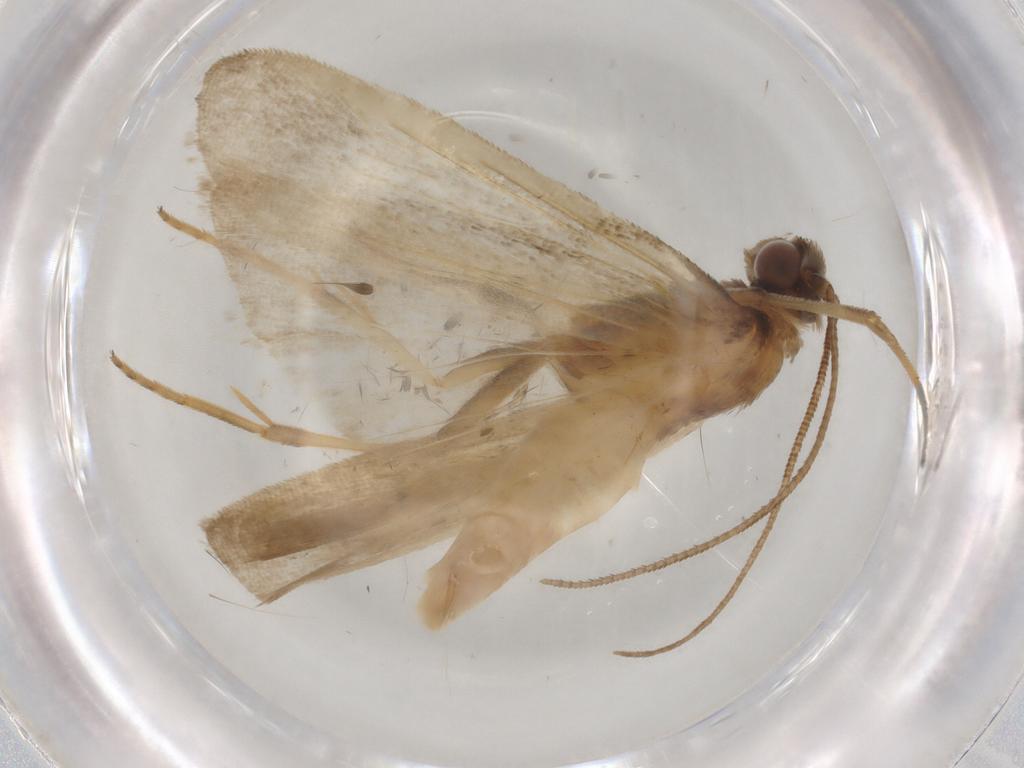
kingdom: Animalia
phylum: Arthropoda
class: Insecta
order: Lepidoptera
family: Noctuidae
